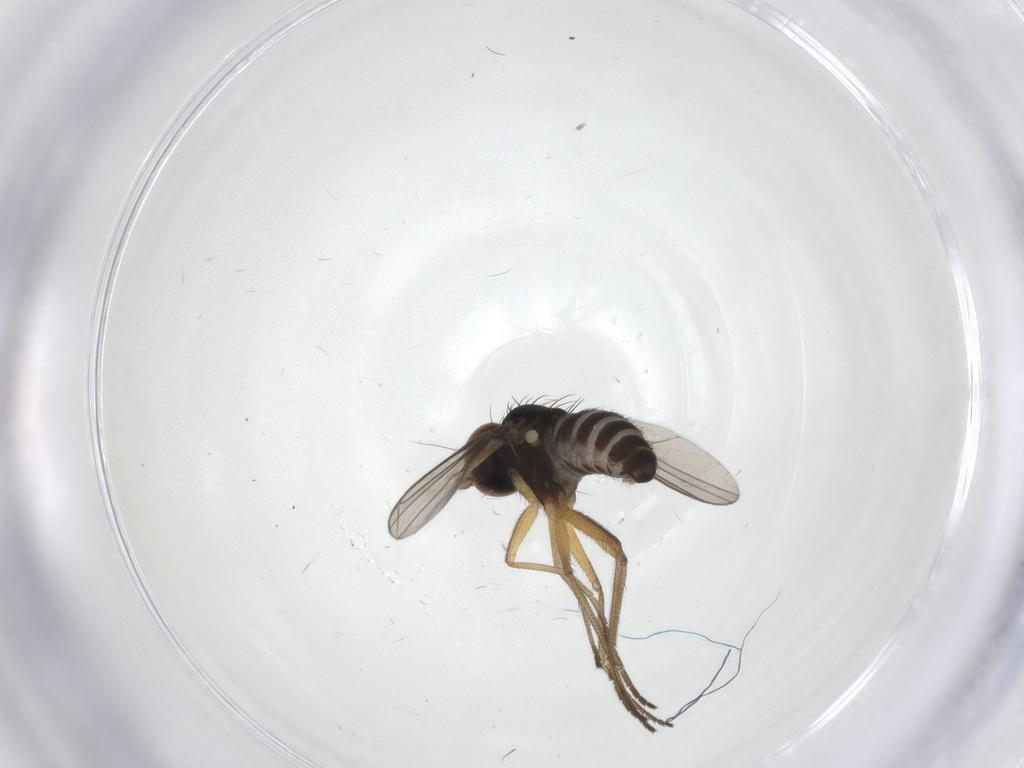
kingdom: Animalia
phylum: Arthropoda
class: Insecta
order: Diptera
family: Dolichopodidae
